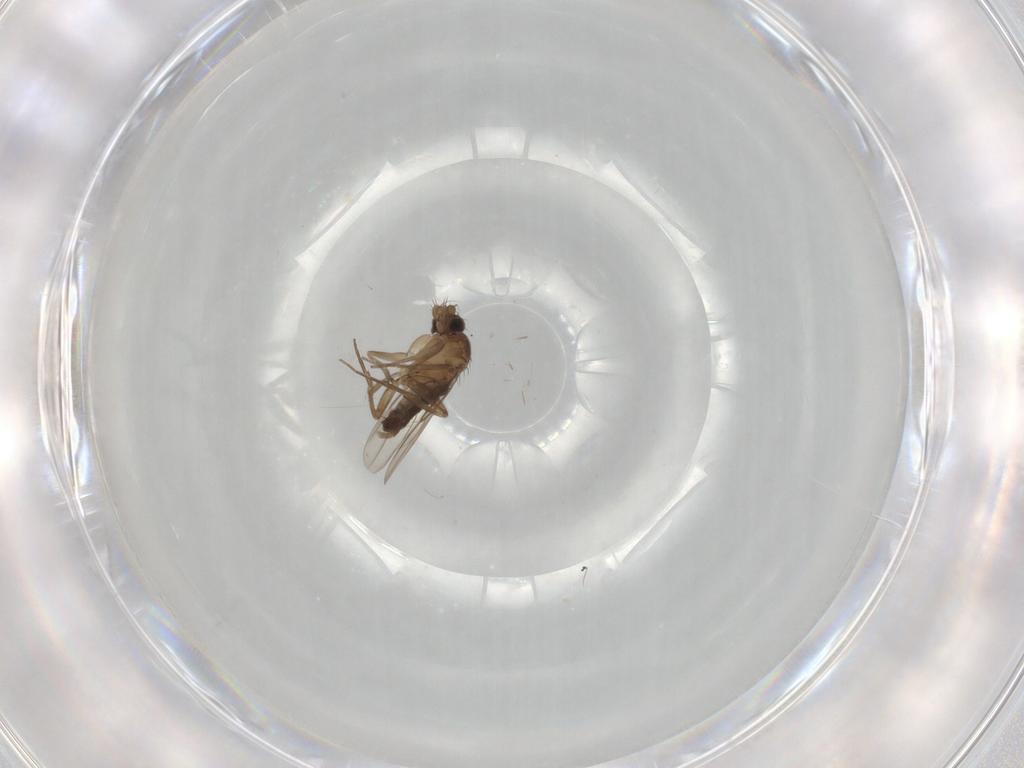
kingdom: Animalia
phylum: Arthropoda
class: Insecta
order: Diptera
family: Phoridae
